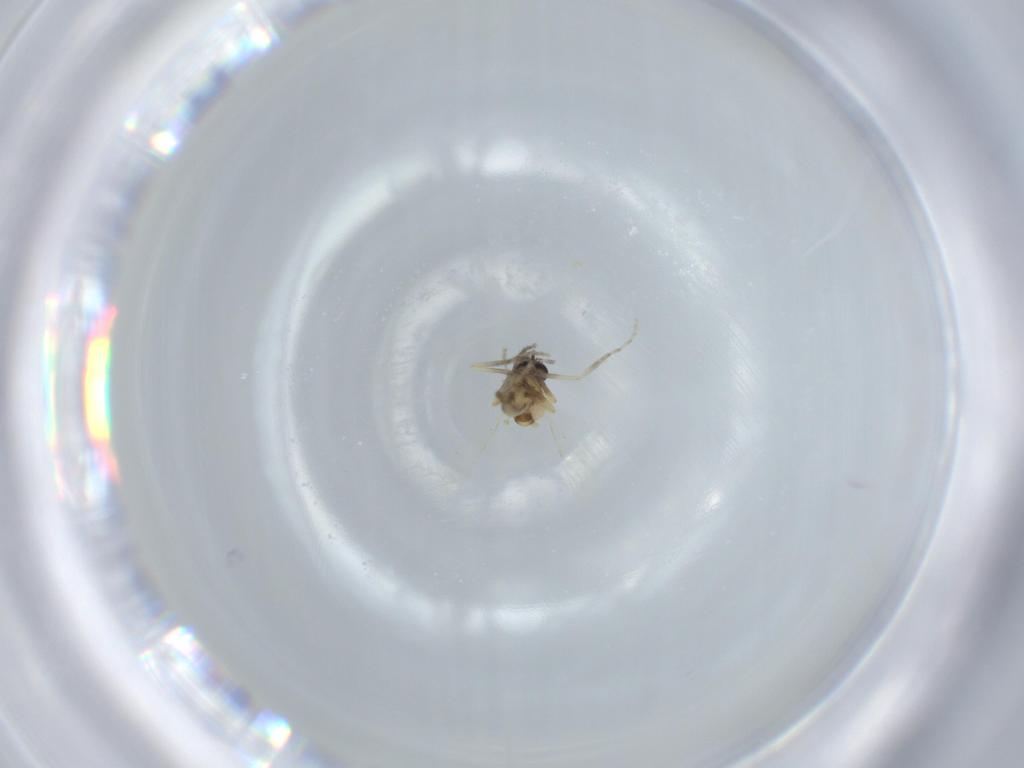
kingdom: Animalia
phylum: Arthropoda
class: Insecta
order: Diptera
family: Ceratopogonidae
